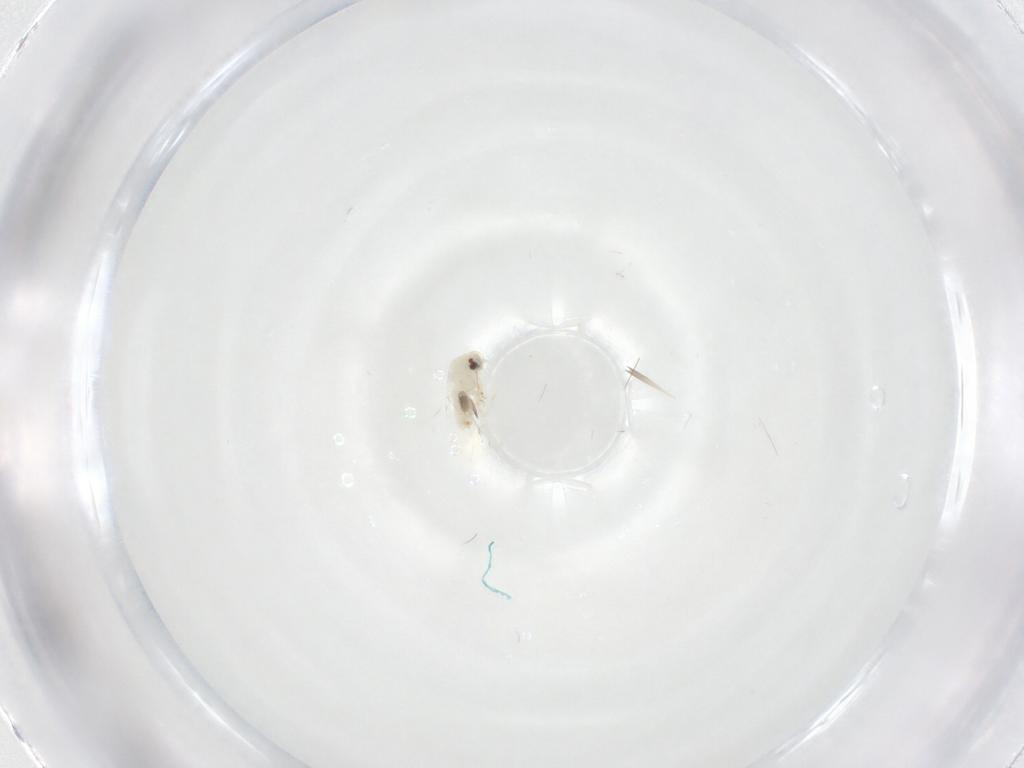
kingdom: Animalia
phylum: Arthropoda
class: Insecta
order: Hemiptera
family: Aleyrodidae
